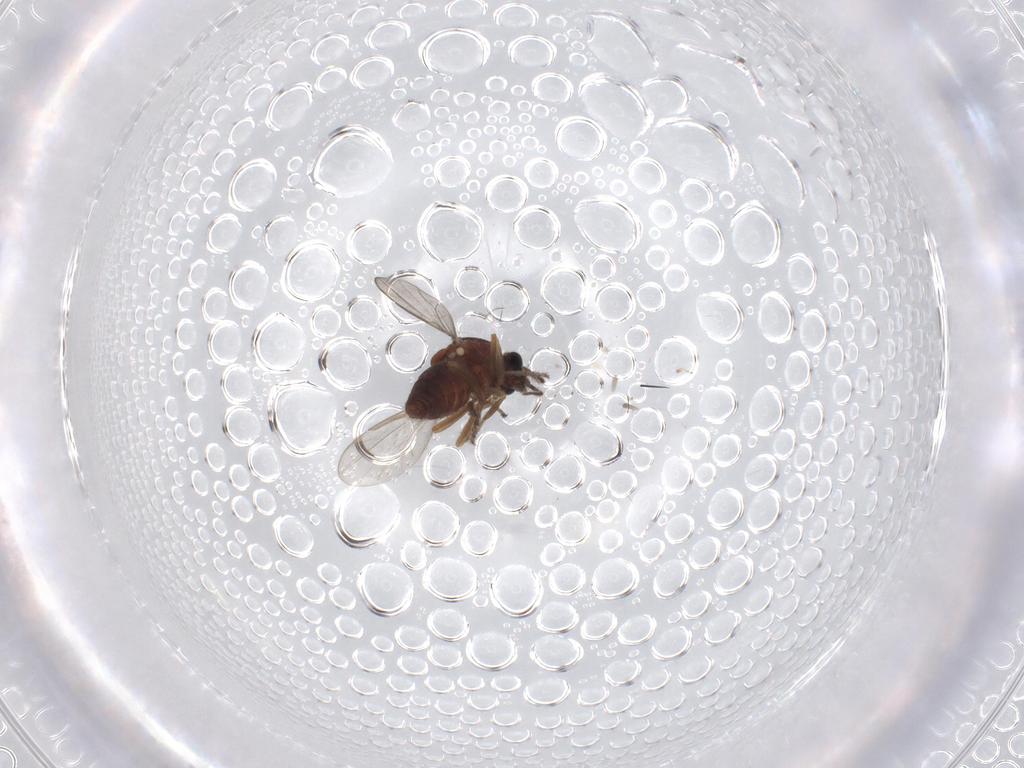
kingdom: Animalia
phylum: Arthropoda
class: Insecta
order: Diptera
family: Ceratopogonidae
